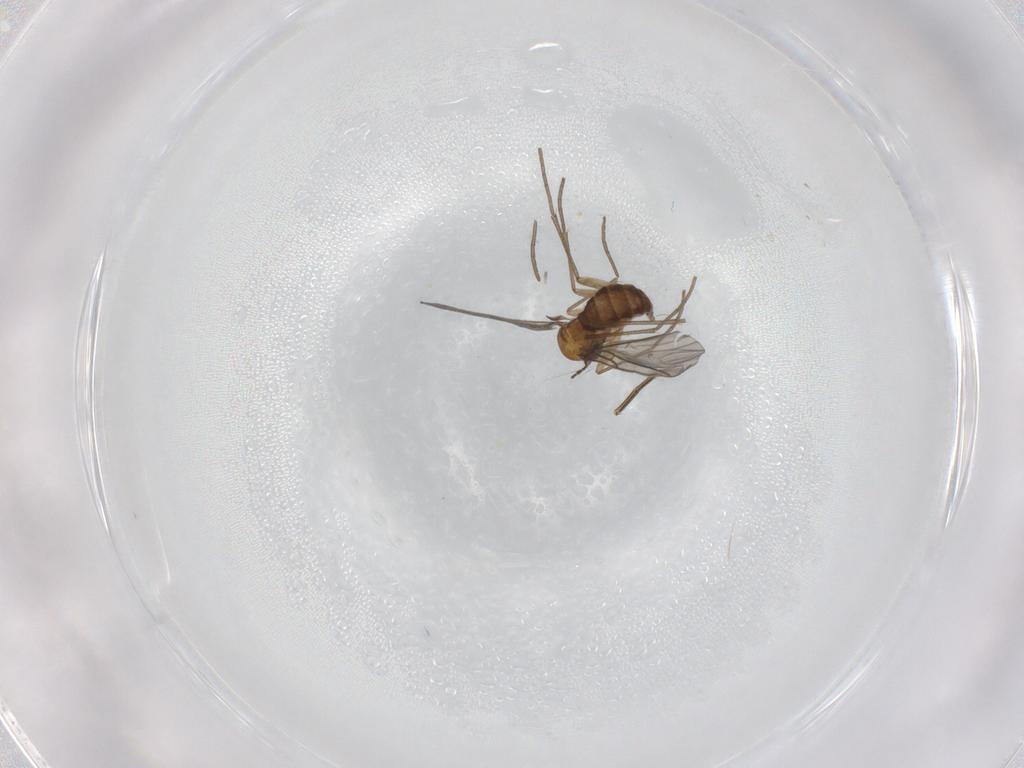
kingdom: Animalia
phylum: Arthropoda
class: Insecta
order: Diptera
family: Sciaridae
